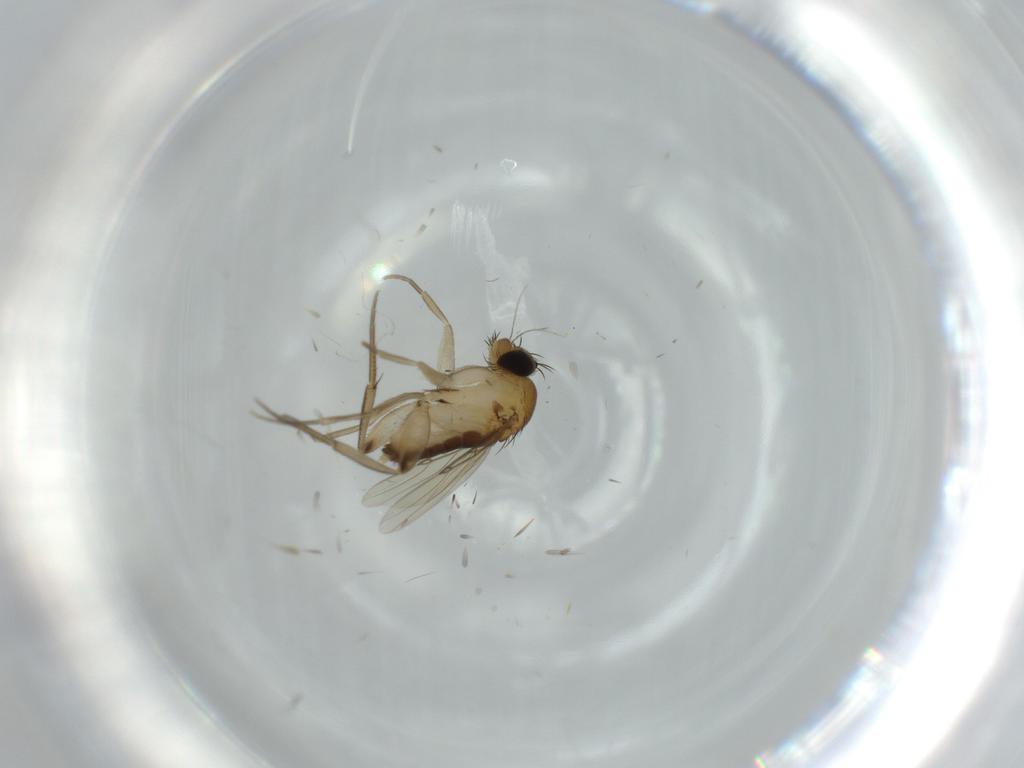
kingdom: Animalia
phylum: Arthropoda
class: Insecta
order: Diptera
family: Phoridae
